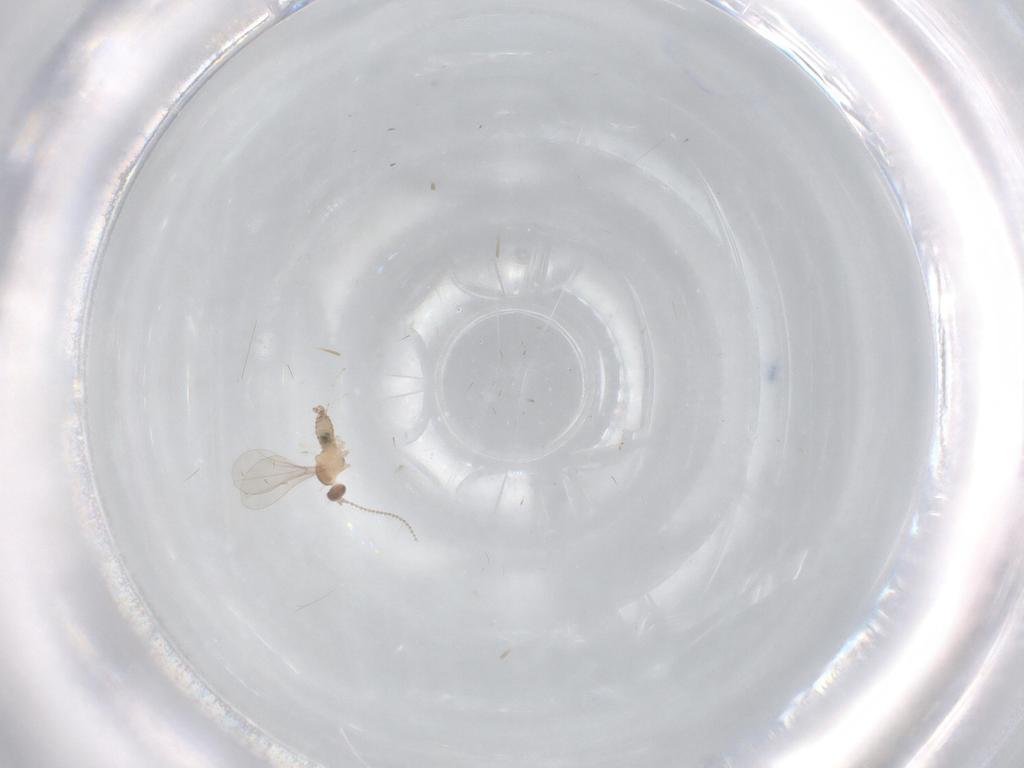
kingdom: Animalia
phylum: Arthropoda
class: Insecta
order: Diptera
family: Cecidomyiidae
